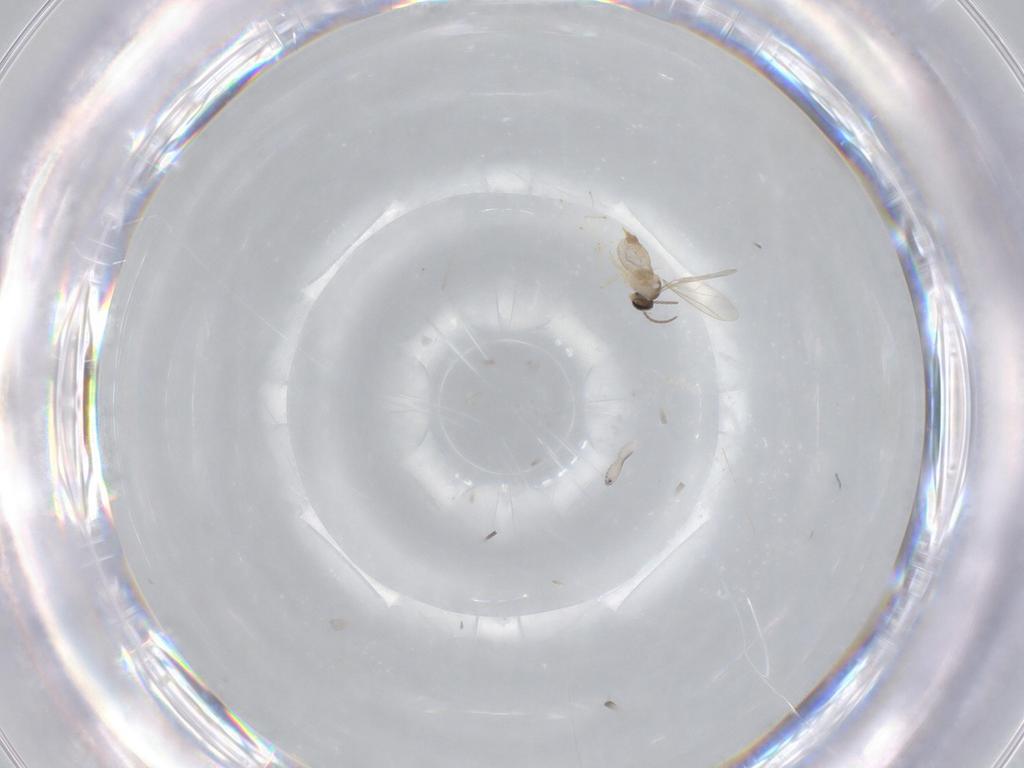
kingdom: Animalia
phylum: Arthropoda
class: Insecta
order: Diptera
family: Cecidomyiidae
